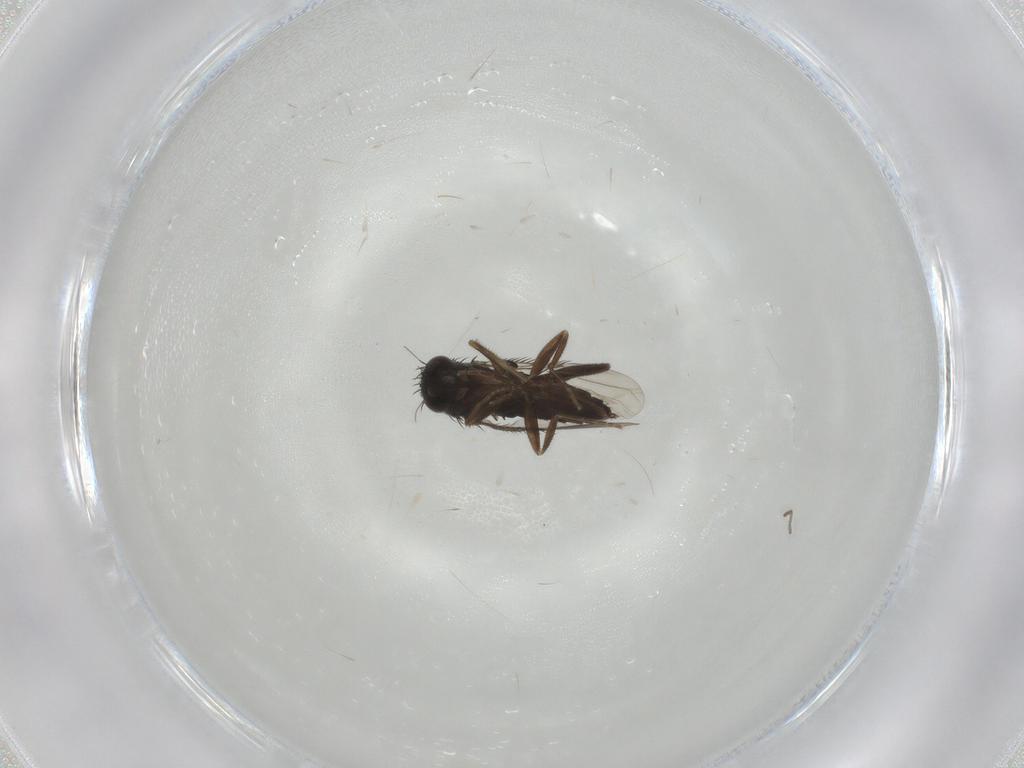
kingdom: Animalia
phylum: Arthropoda
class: Insecta
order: Diptera
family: Phoridae
